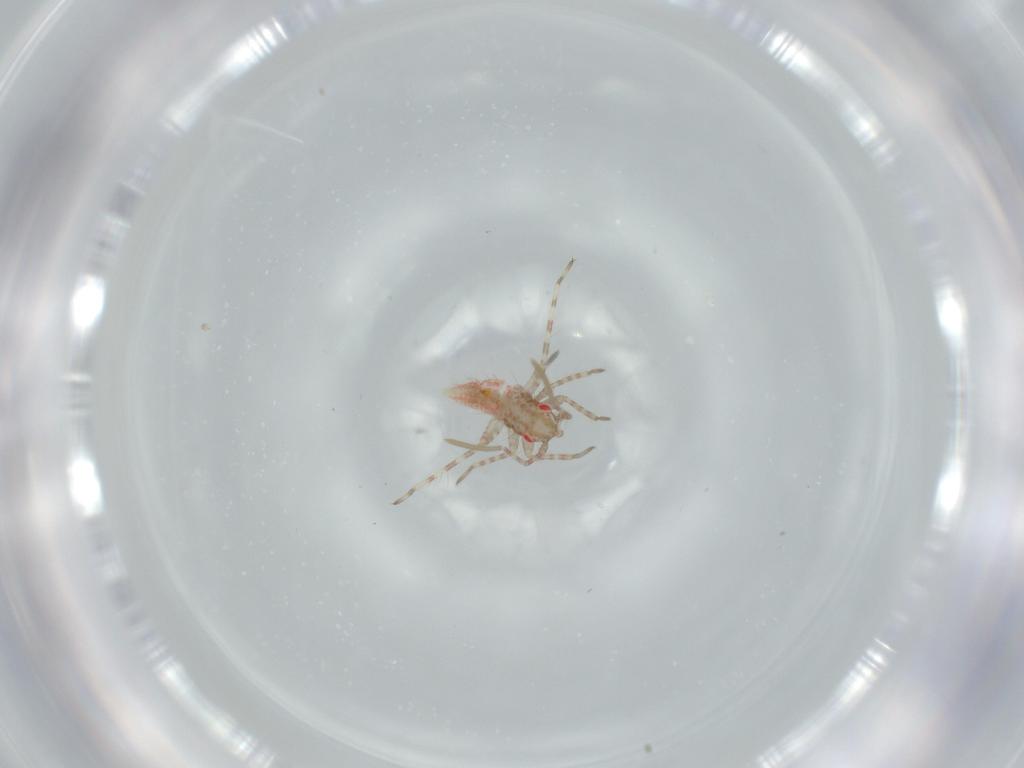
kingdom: Animalia
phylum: Arthropoda
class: Insecta
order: Hemiptera
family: Miridae
